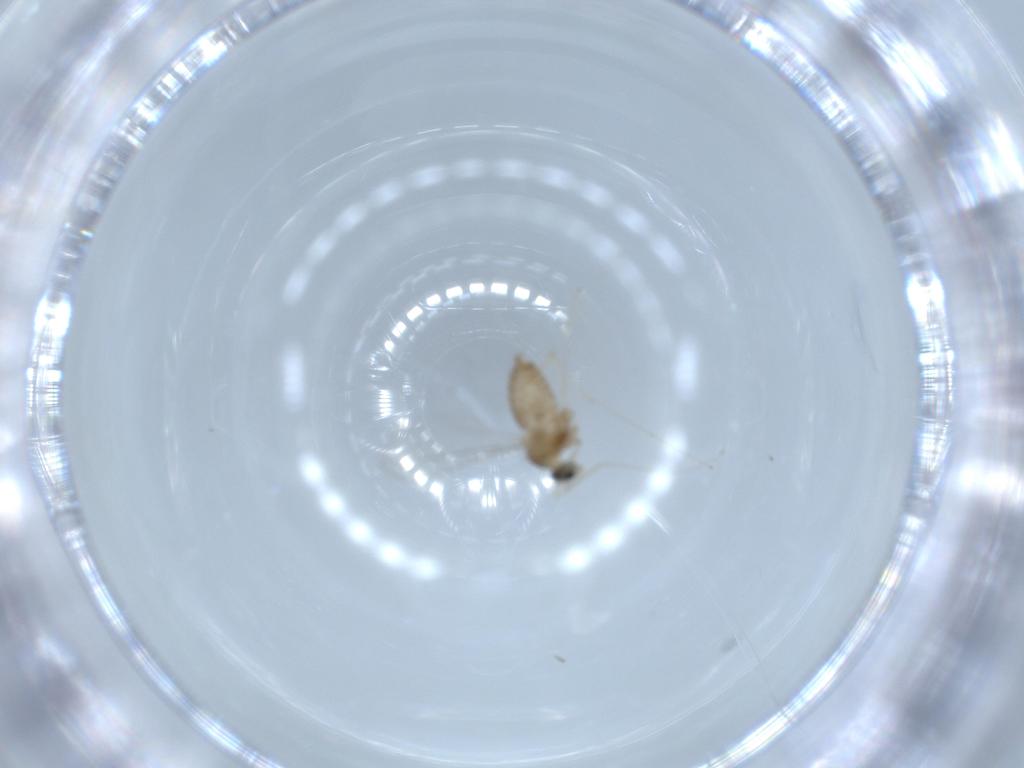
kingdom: Animalia
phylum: Arthropoda
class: Insecta
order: Diptera
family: Cecidomyiidae
